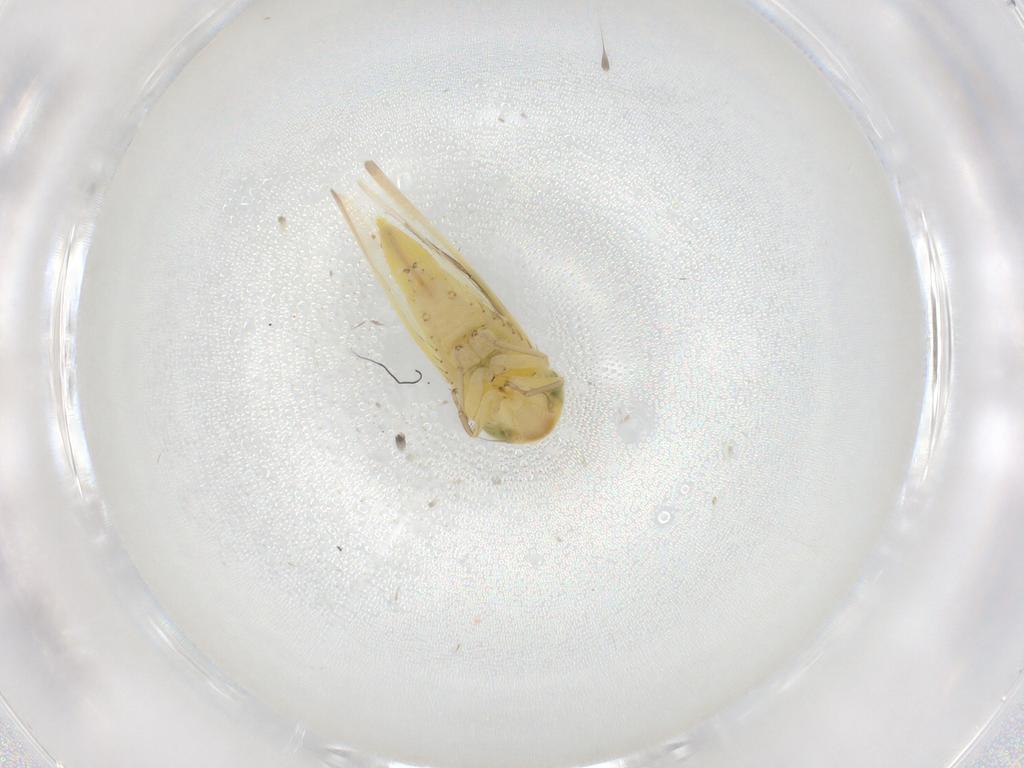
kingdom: Animalia
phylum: Arthropoda
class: Insecta
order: Hemiptera
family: Cicadellidae
